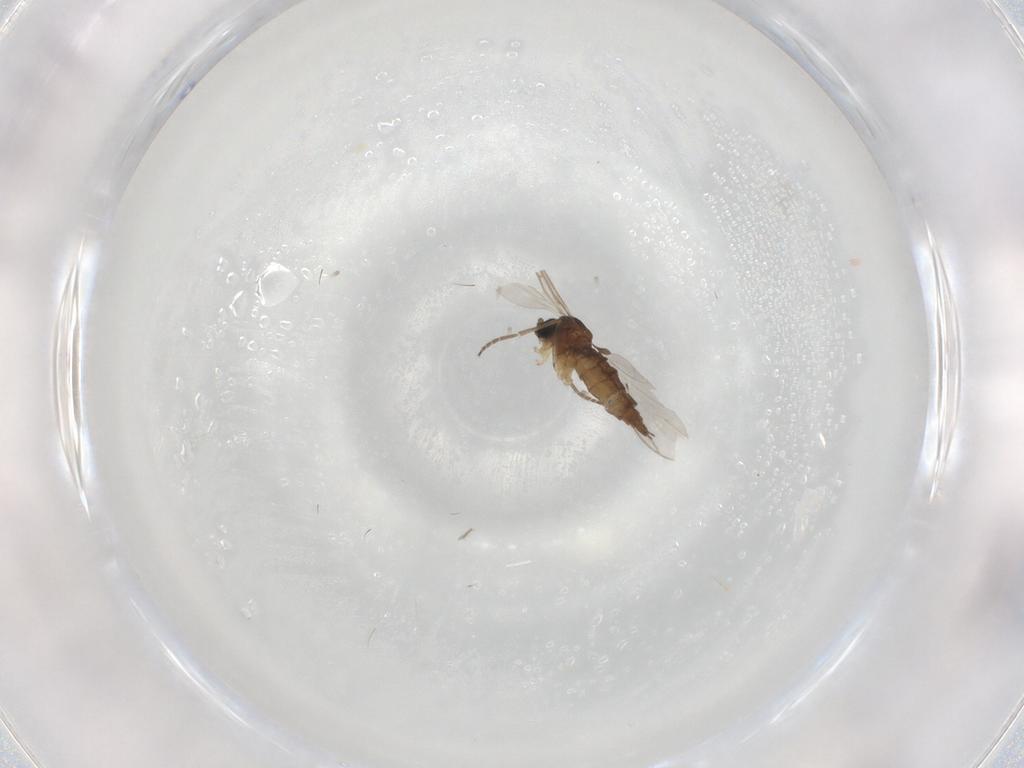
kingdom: Animalia
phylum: Arthropoda
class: Insecta
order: Diptera
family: Sciaridae
